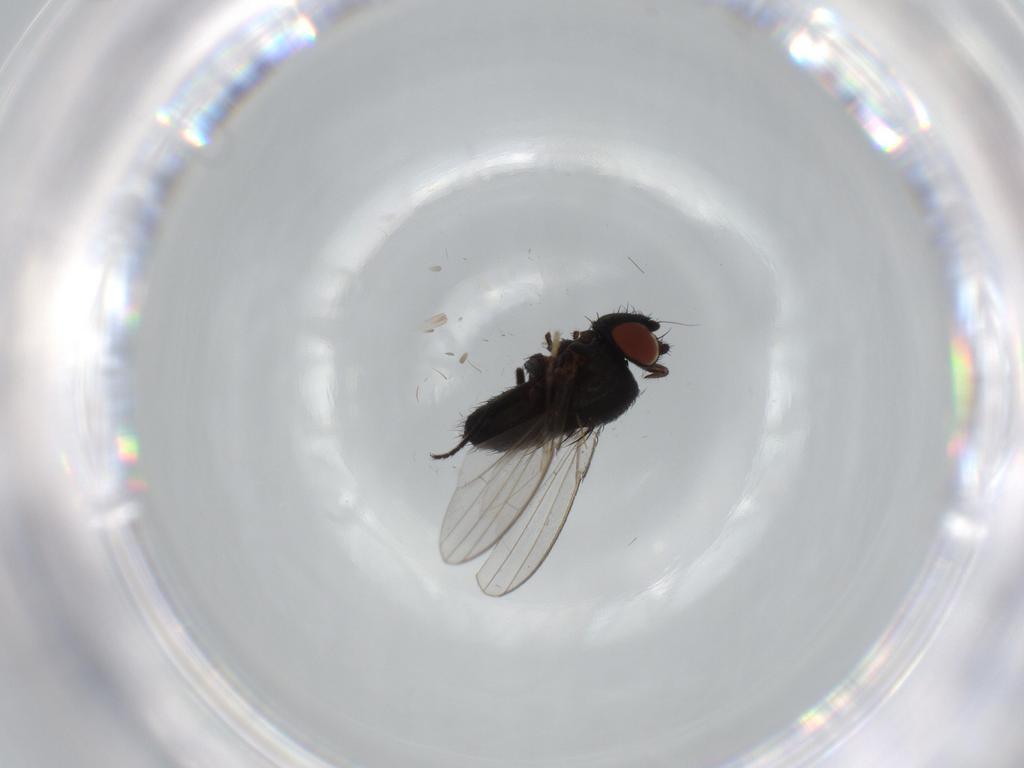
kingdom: Animalia
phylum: Arthropoda
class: Insecta
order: Diptera
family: Milichiidae
